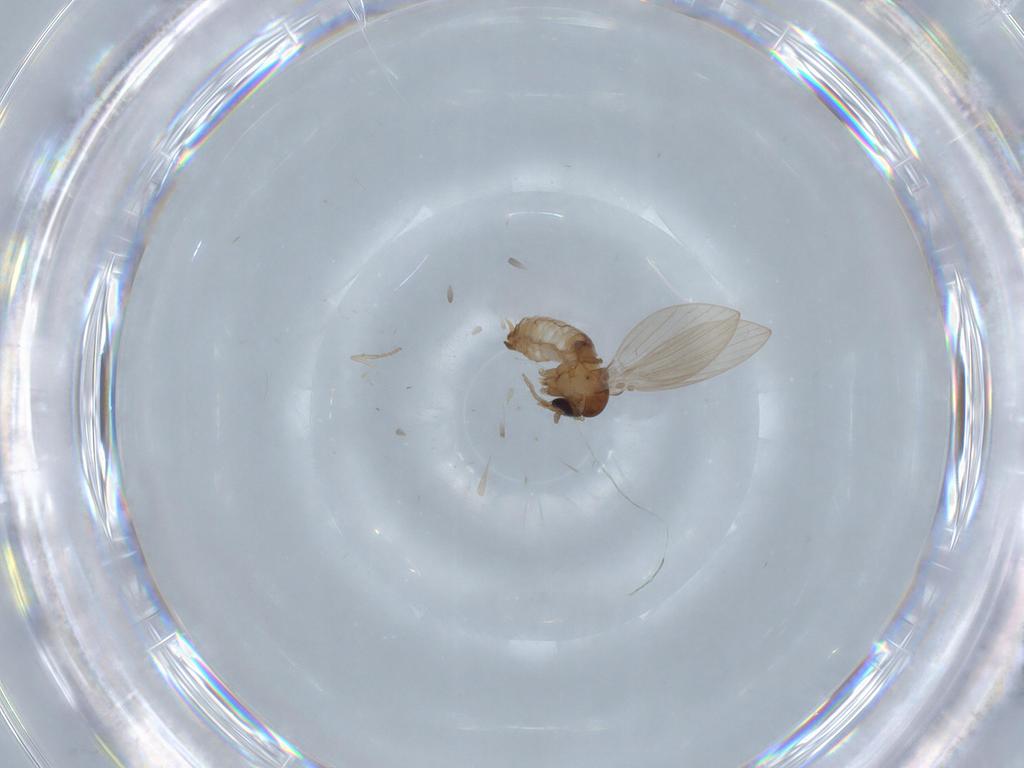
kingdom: Animalia
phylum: Arthropoda
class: Insecta
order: Diptera
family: Psychodidae
